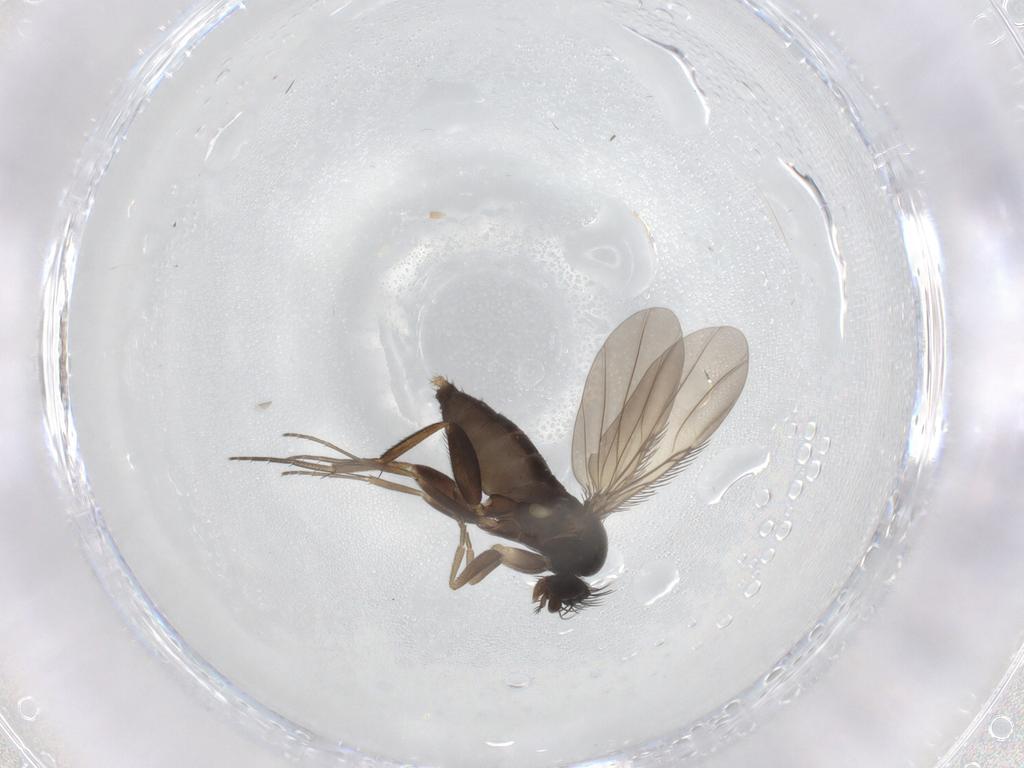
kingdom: Animalia
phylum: Arthropoda
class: Insecta
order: Diptera
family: Phoridae
